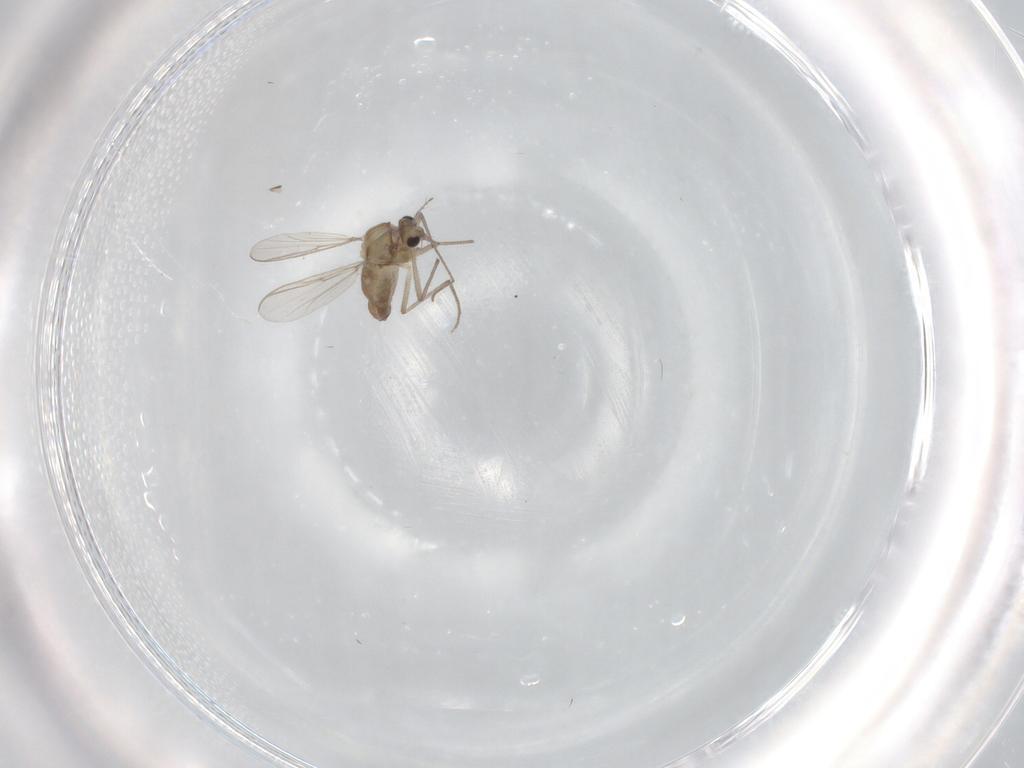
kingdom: Animalia
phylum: Arthropoda
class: Insecta
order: Diptera
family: Chironomidae
